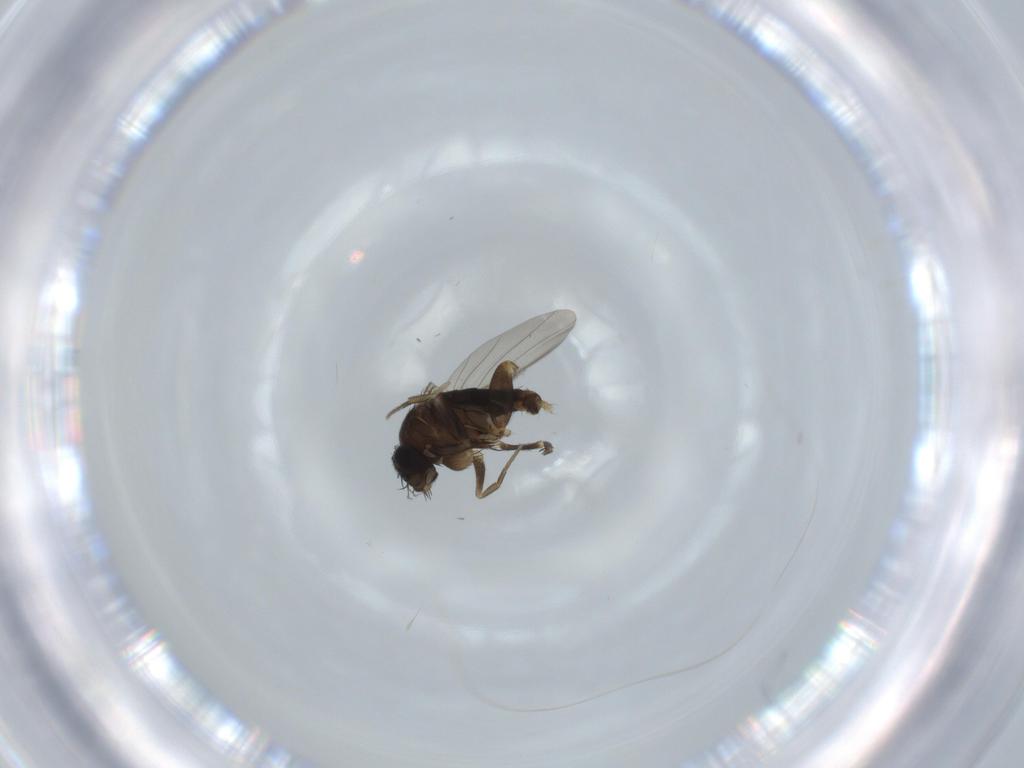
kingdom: Animalia
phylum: Arthropoda
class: Insecta
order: Diptera
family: Phoridae
